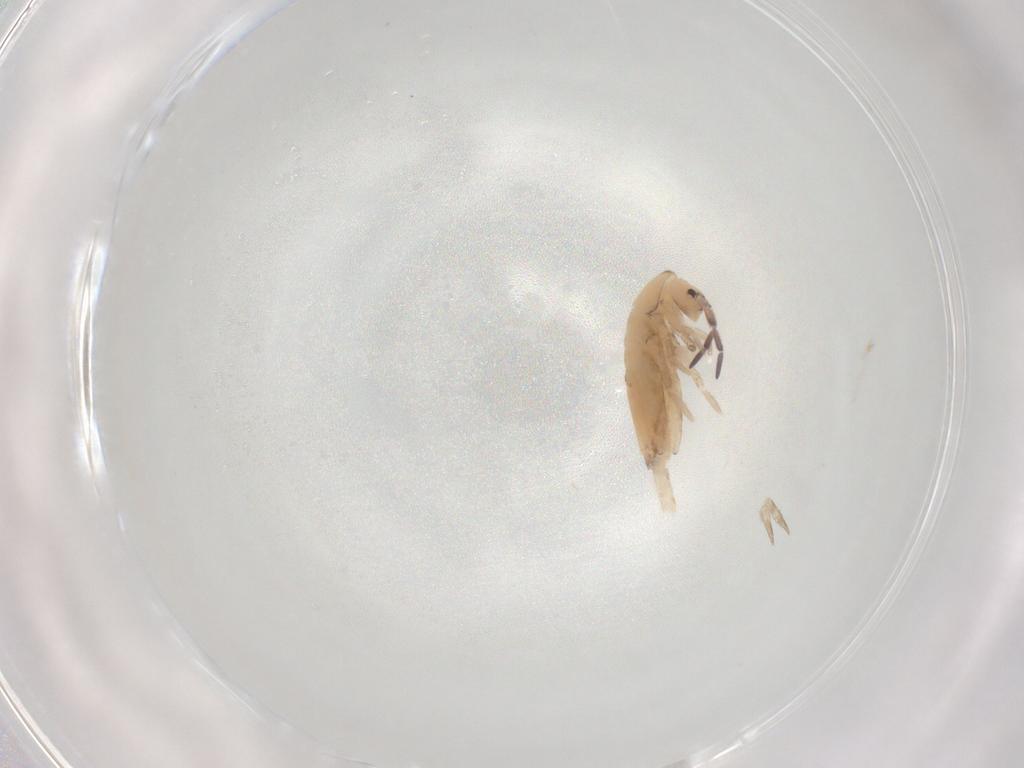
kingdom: Animalia
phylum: Arthropoda
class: Collembola
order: Entomobryomorpha
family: Entomobryidae
